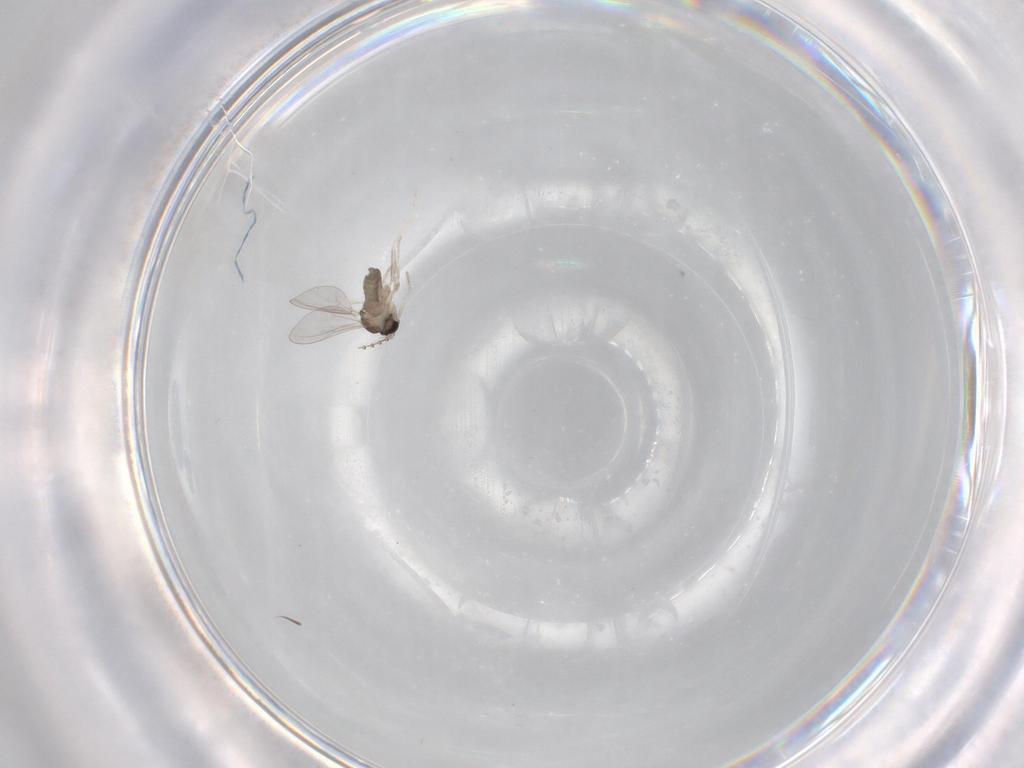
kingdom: Animalia
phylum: Arthropoda
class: Insecta
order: Diptera
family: Cecidomyiidae
